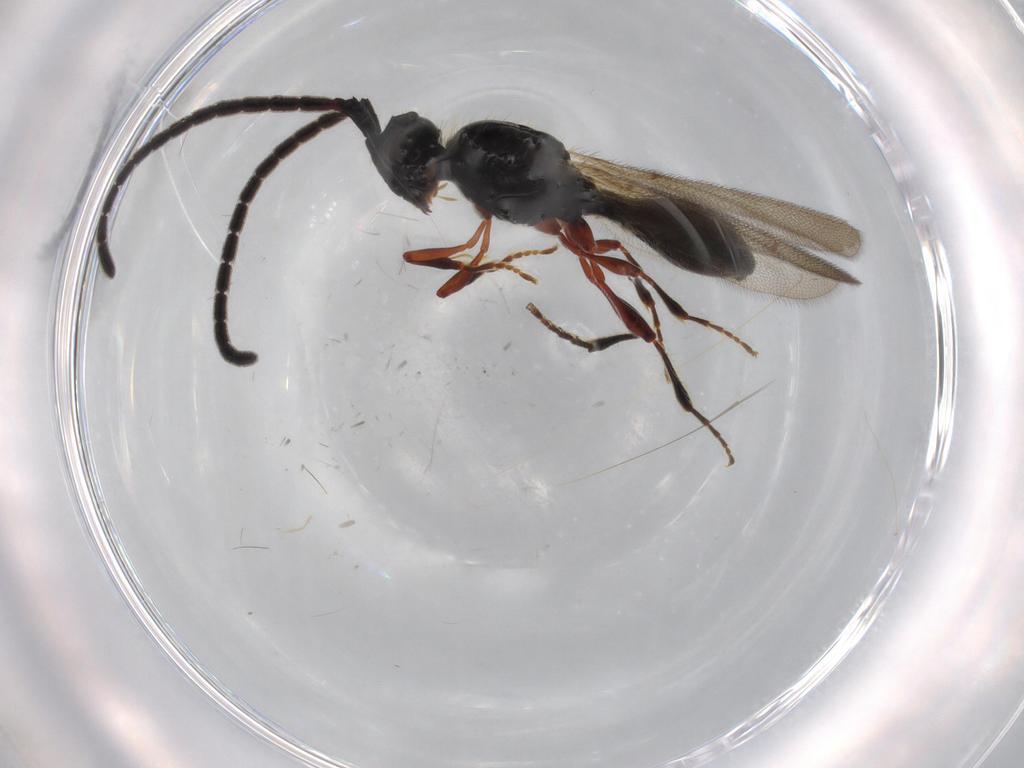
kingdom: Animalia
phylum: Arthropoda
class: Insecta
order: Hymenoptera
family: Diapriidae
